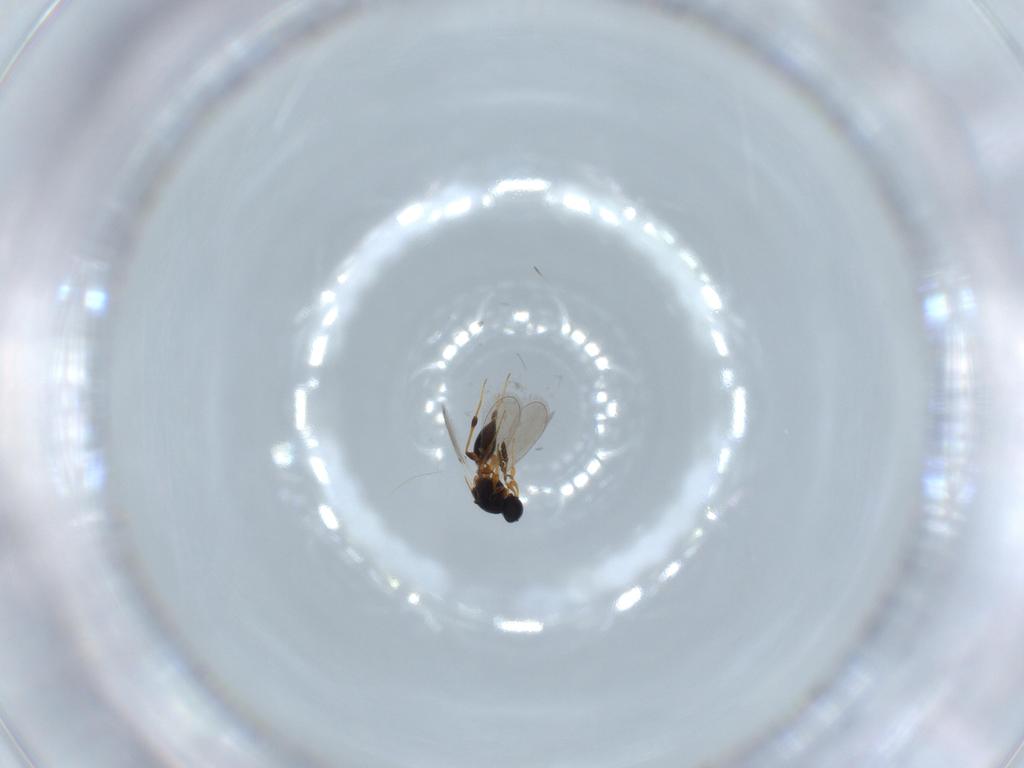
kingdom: Animalia
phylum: Arthropoda
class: Insecta
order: Hymenoptera
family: Platygastridae
